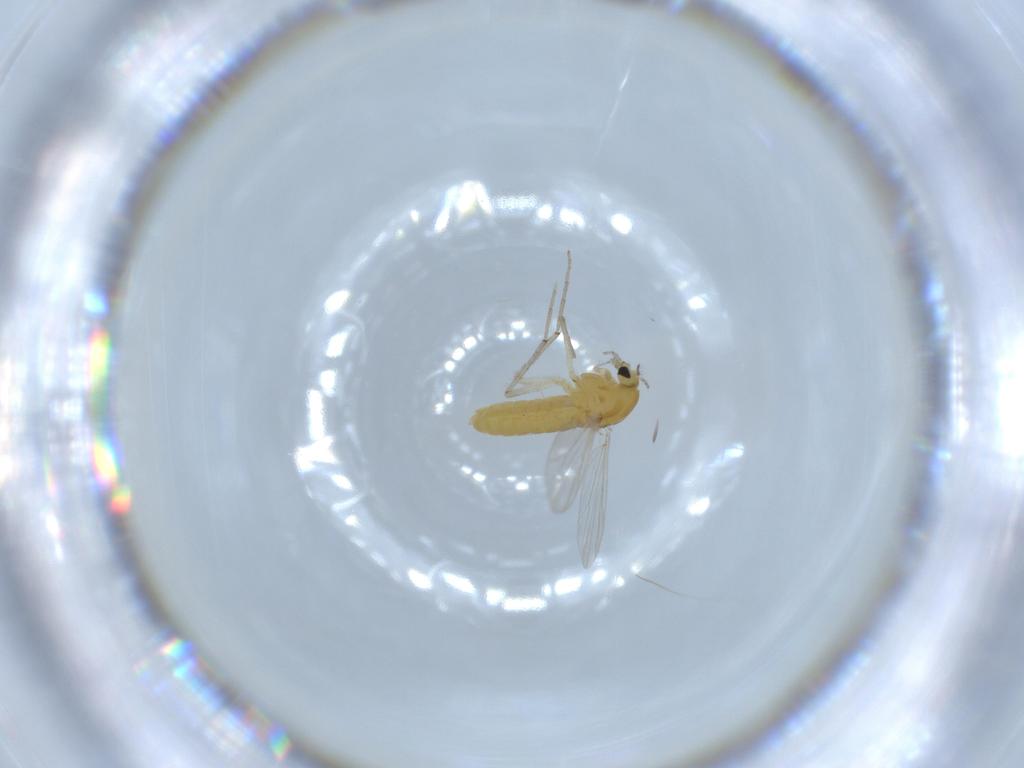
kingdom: Animalia
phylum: Arthropoda
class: Insecta
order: Diptera
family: Chironomidae
